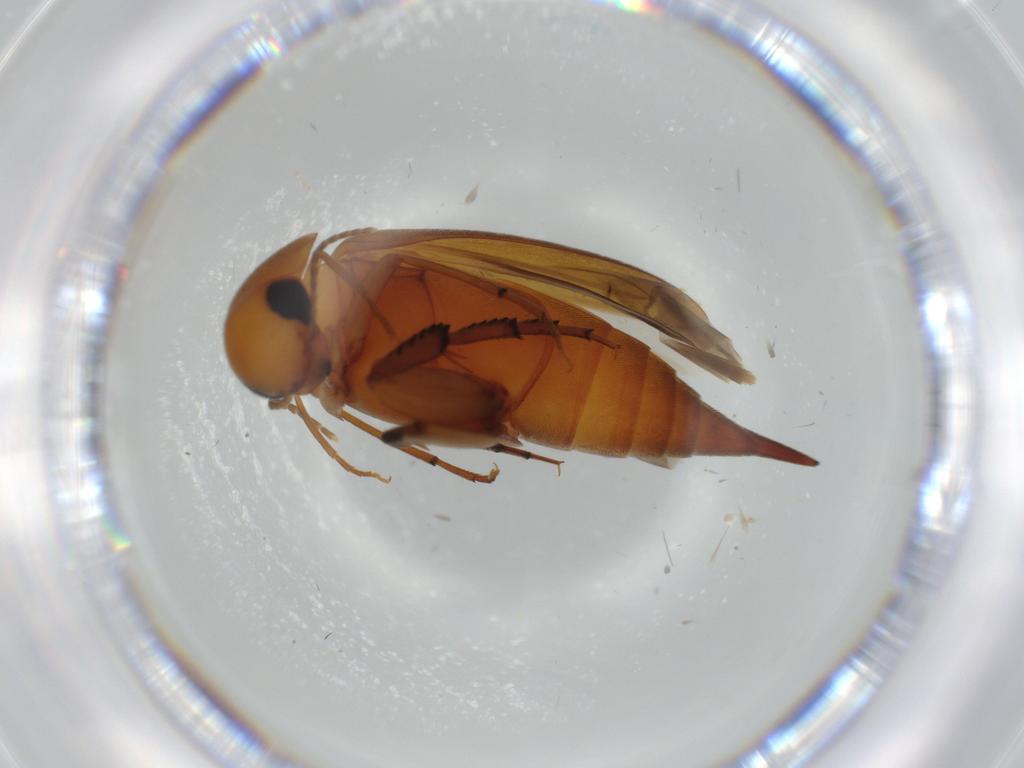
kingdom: Animalia
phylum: Arthropoda
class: Insecta
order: Coleoptera
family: Mordellidae
